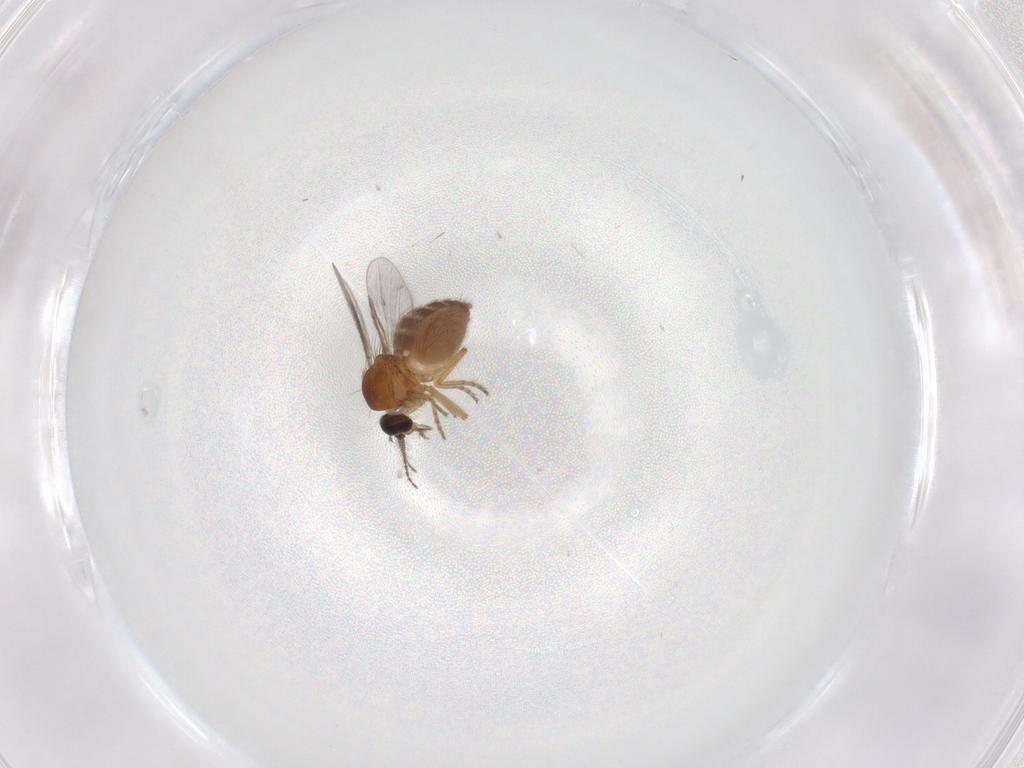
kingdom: Animalia
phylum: Arthropoda
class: Insecta
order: Diptera
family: Ceratopogonidae
